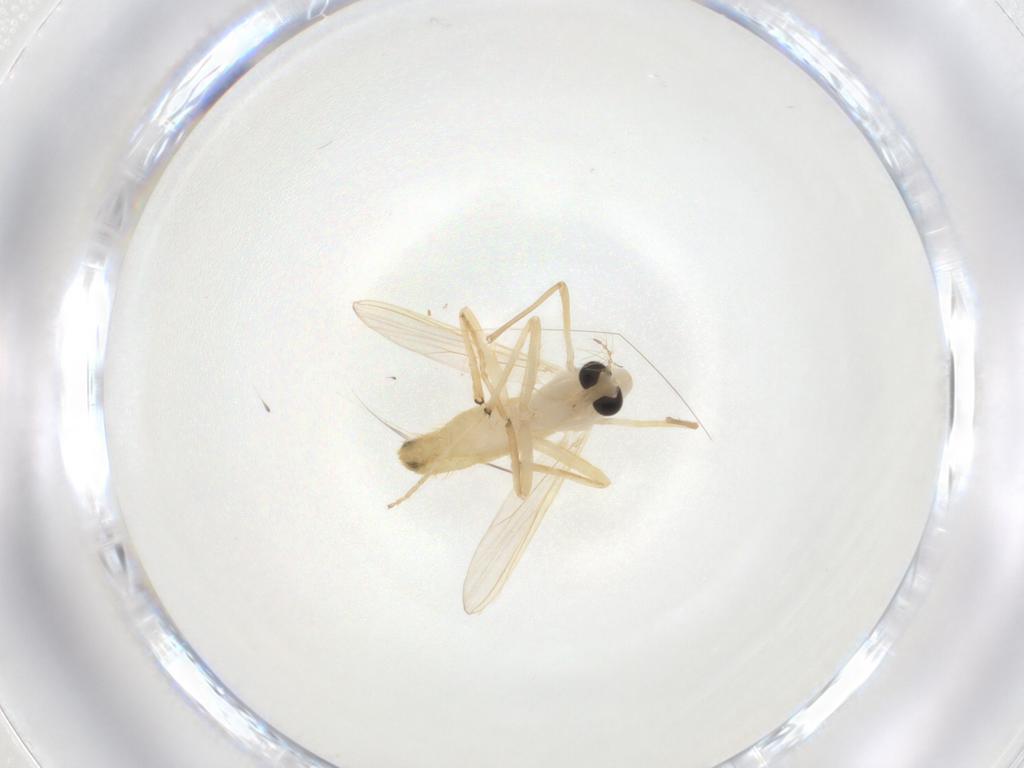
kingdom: Animalia
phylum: Arthropoda
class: Insecta
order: Diptera
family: Chironomidae
